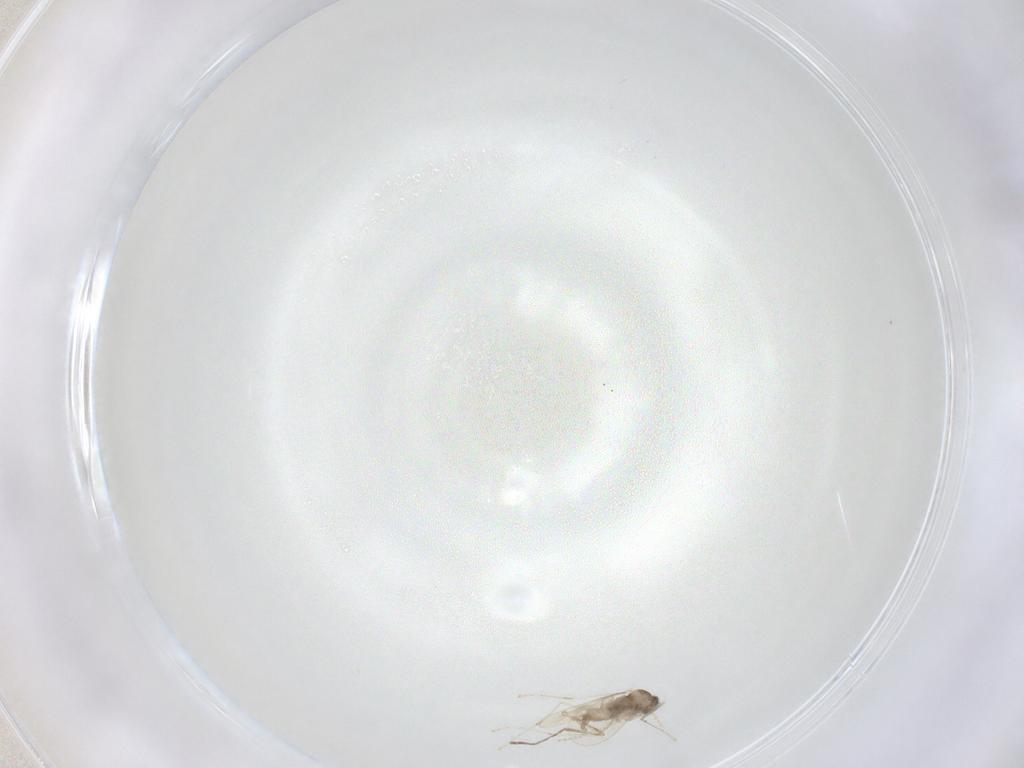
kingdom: Animalia
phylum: Arthropoda
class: Insecta
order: Diptera
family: Cecidomyiidae
